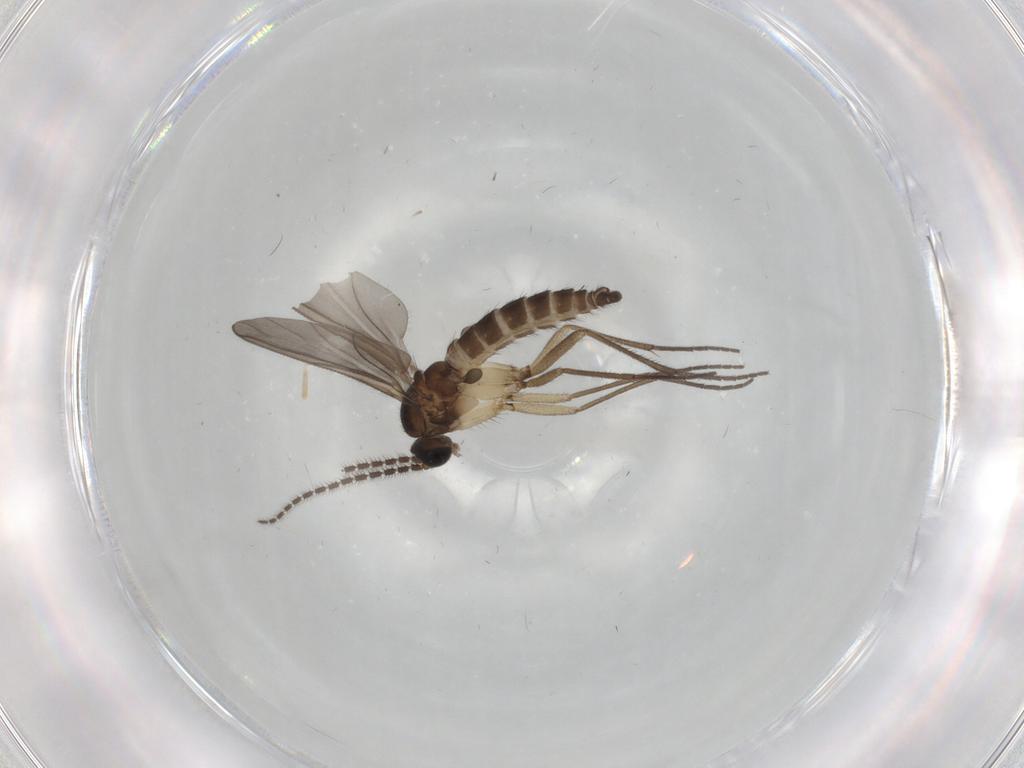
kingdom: Animalia
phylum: Arthropoda
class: Insecta
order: Diptera
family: Sciaridae
